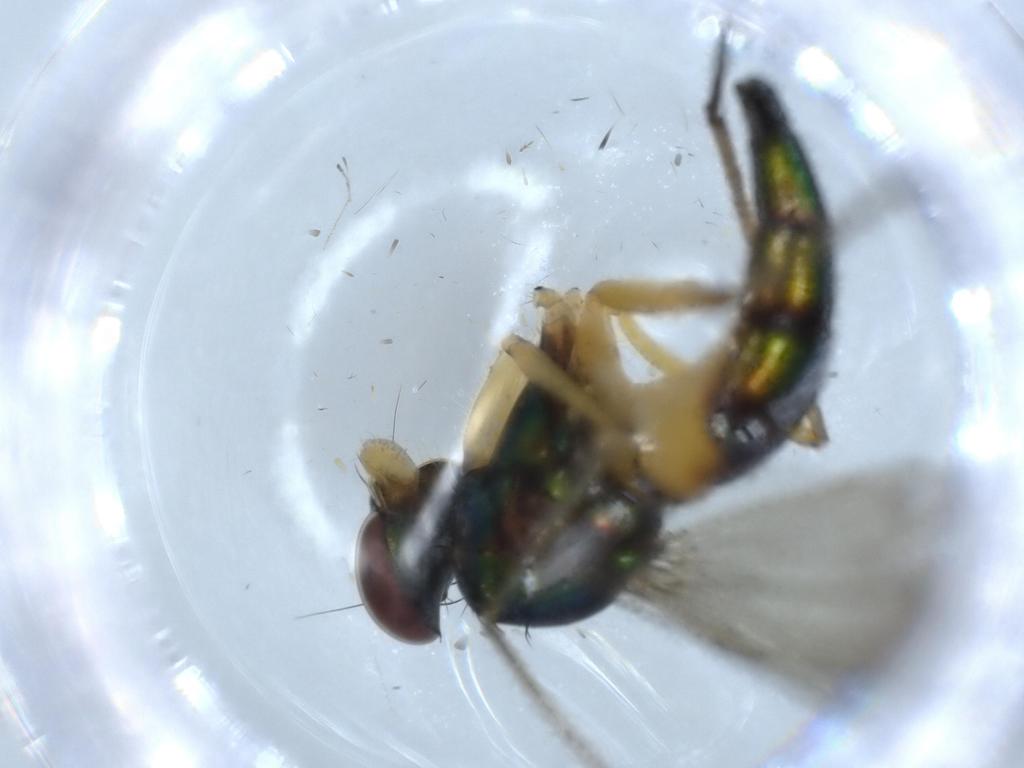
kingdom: Animalia
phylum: Arthropoda
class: Insecta
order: Diptera
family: Dolichopodidae
